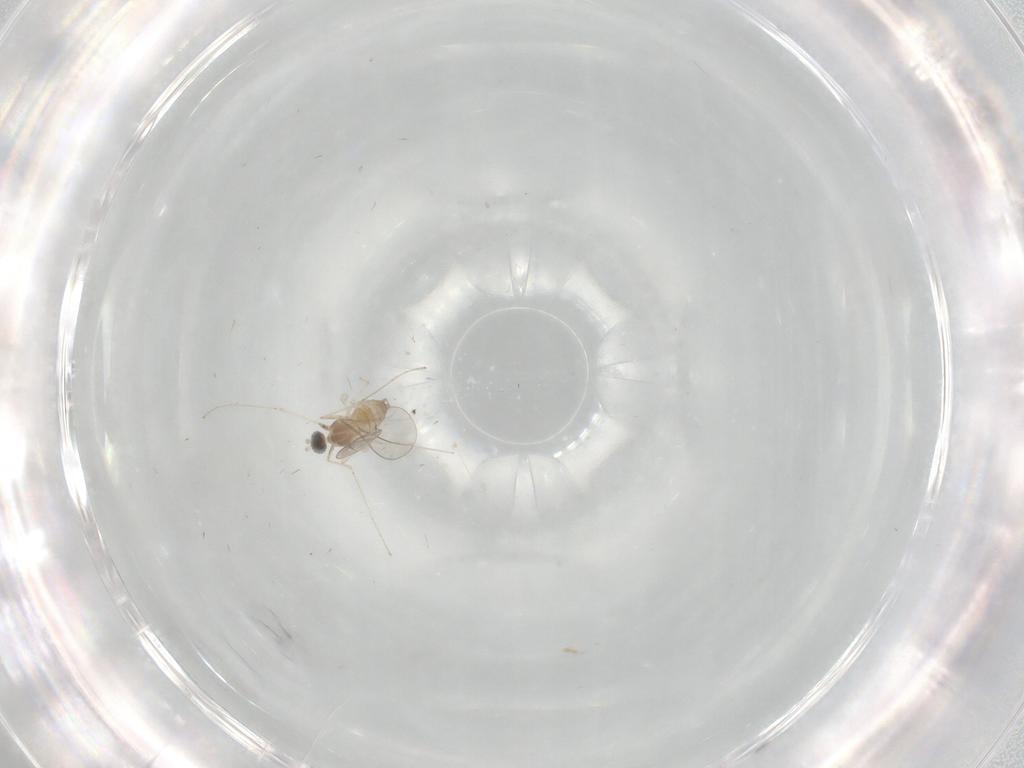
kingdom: Animalia
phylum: Arthropoda
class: Insecta
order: Diptera
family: Cecidomyiidae
